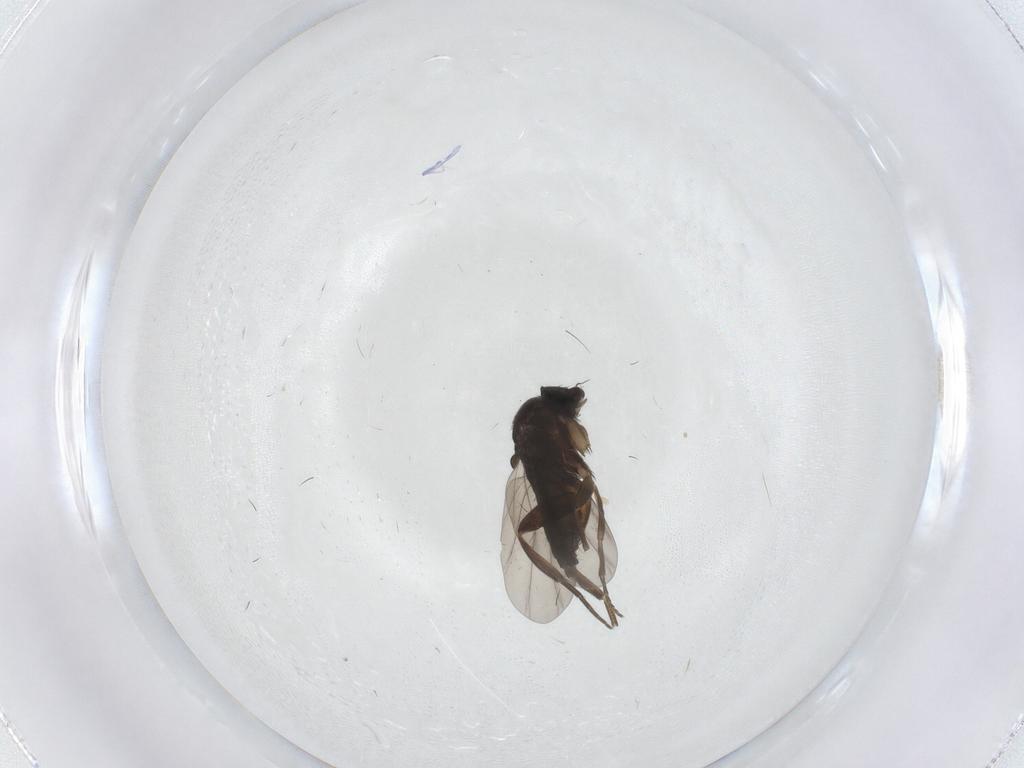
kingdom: Animalia
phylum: Arthropoda
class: Insecta
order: Diptera
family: Phoridae
